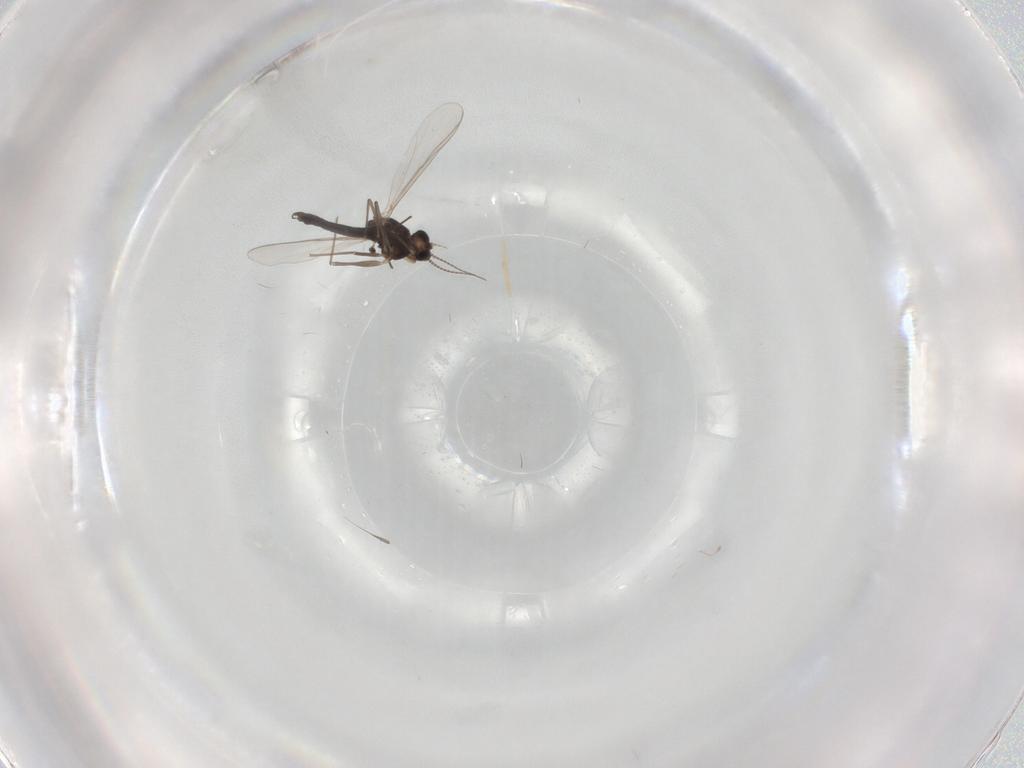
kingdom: Animalia
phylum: Arthropoda
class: Insecta
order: Diptera
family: Chironomidae
